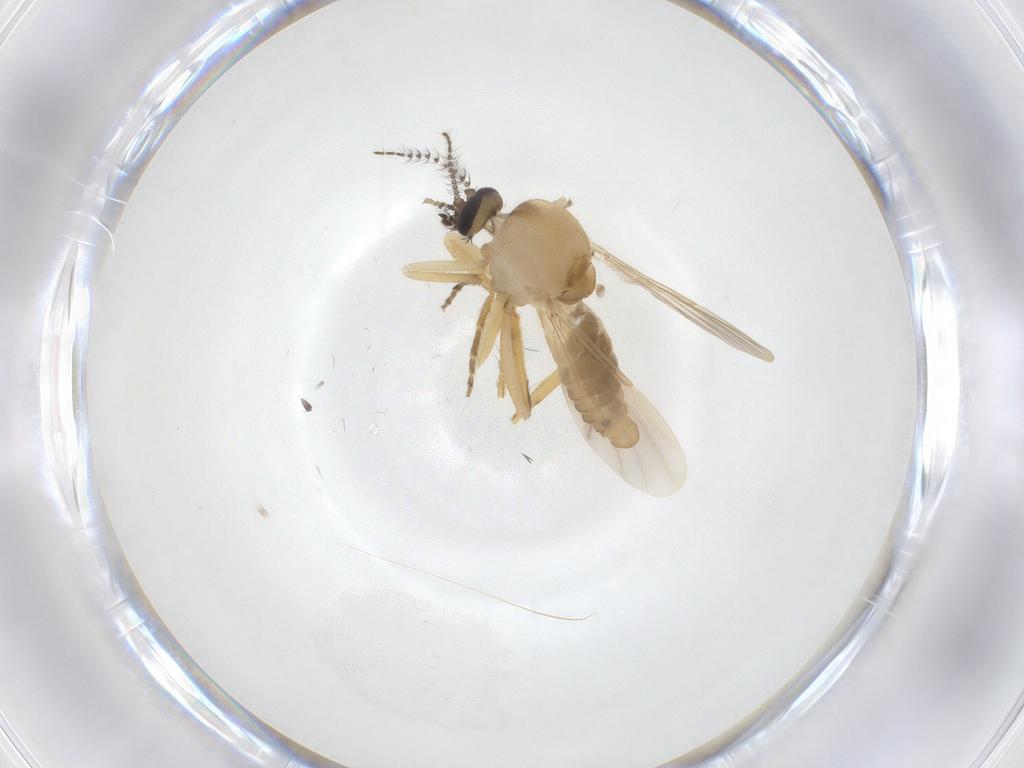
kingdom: Animalia
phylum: Arthropoda
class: Insecta
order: Diptera
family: Ceratopogonidae
